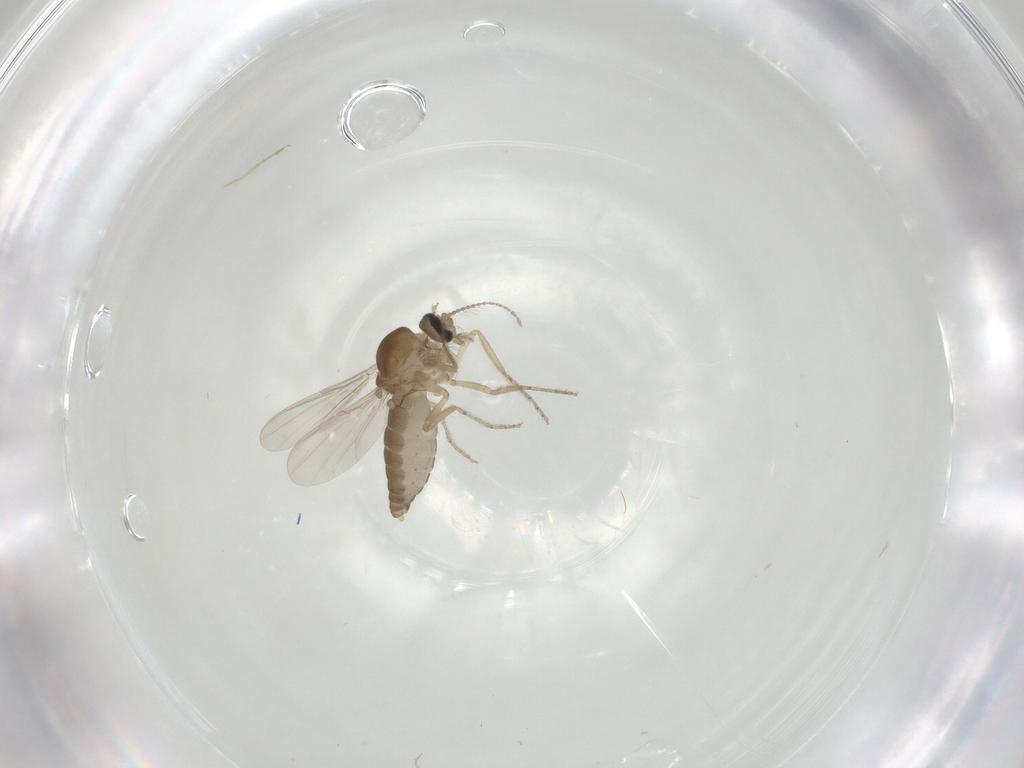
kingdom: Animalia
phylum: Arthropoda
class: Insecta
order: Diptera
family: Ceratopogonidae
